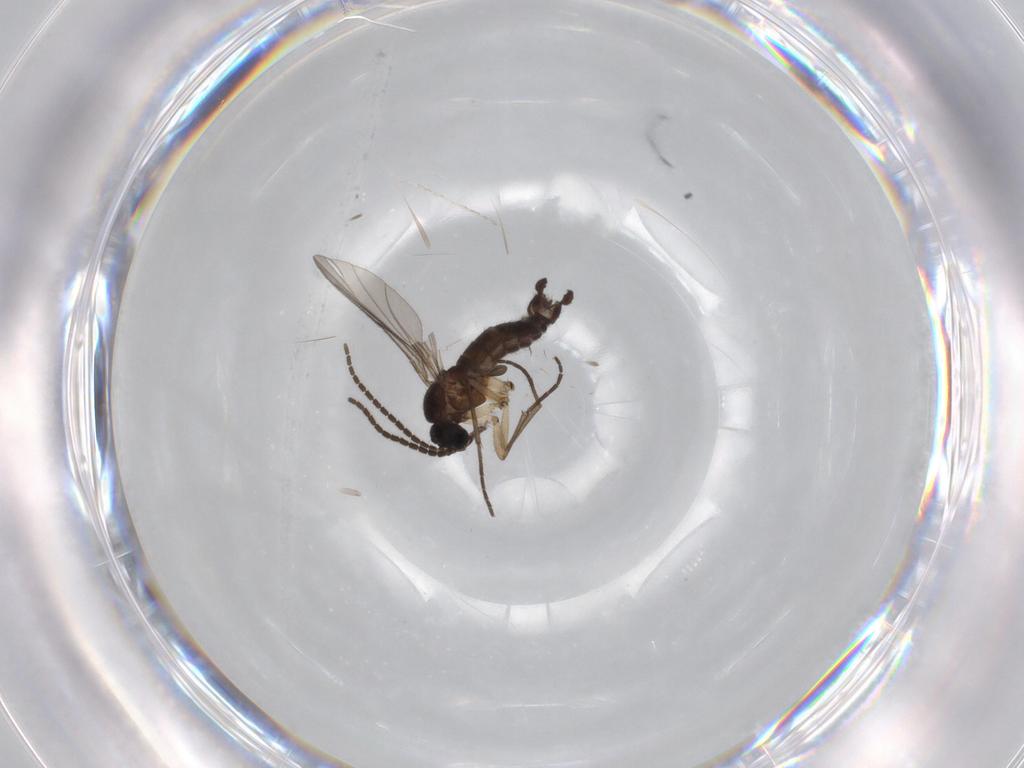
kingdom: Animalia
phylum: Arthropoda
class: Insecta
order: Diptera
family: Sciaridae
